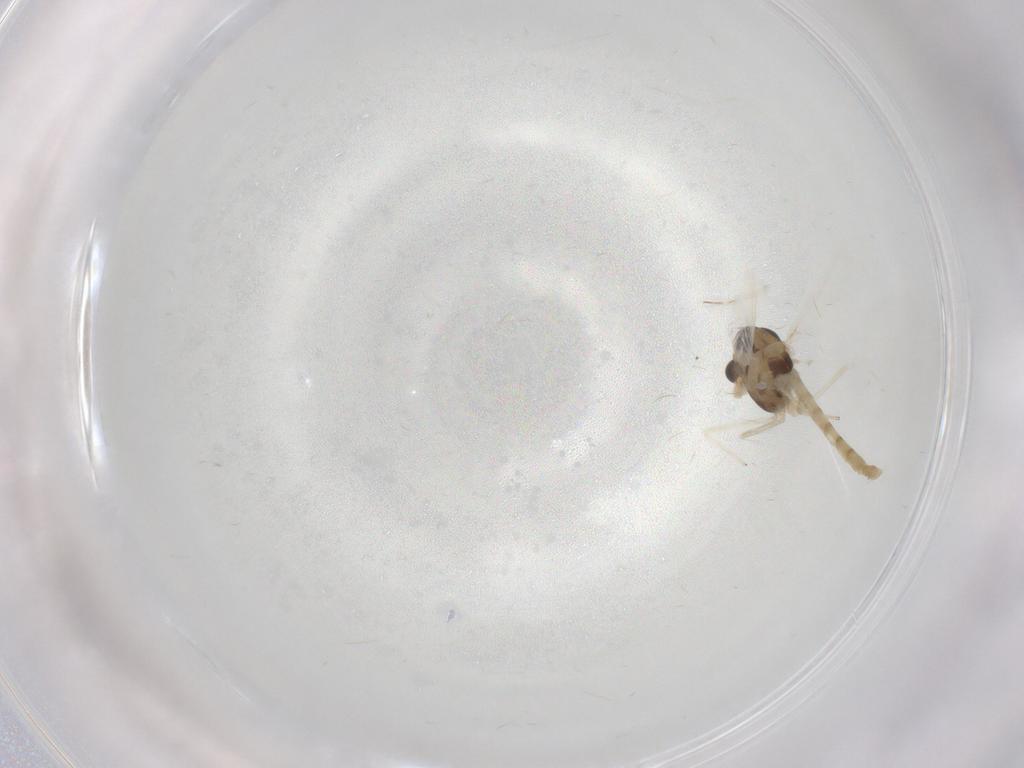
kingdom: Animalia
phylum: Arthropoda
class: Insecta
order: Diptera
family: Chironomidae
